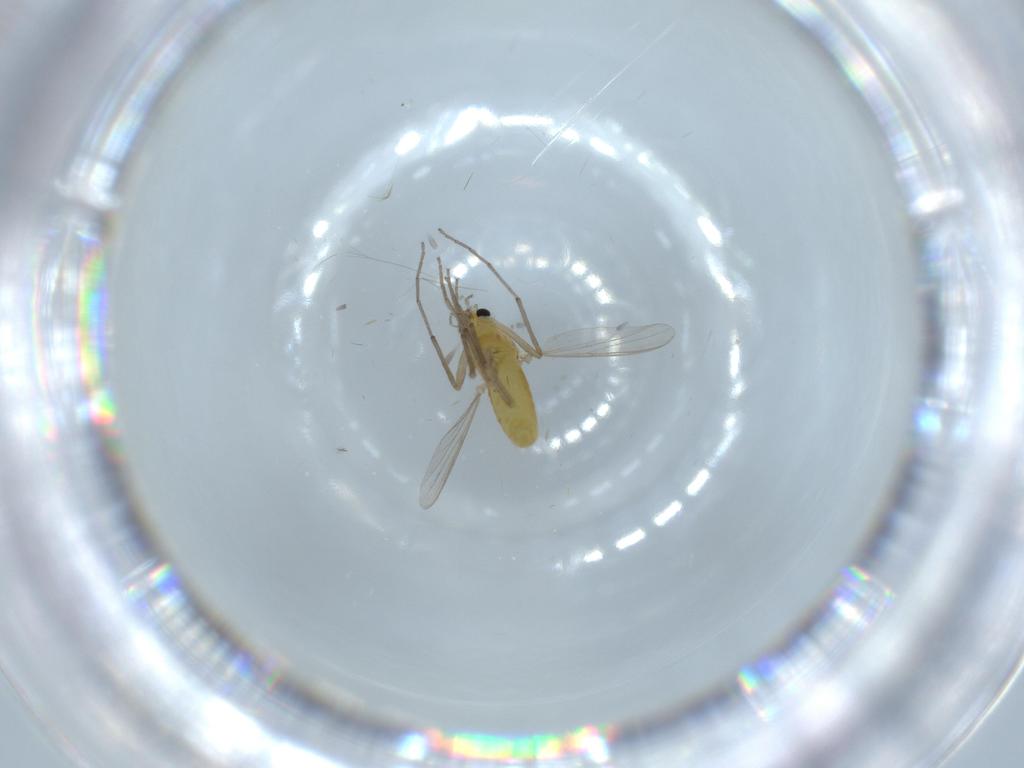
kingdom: Animalia
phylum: Arthropoda
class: Insecta
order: Diptera
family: Chironomidae
